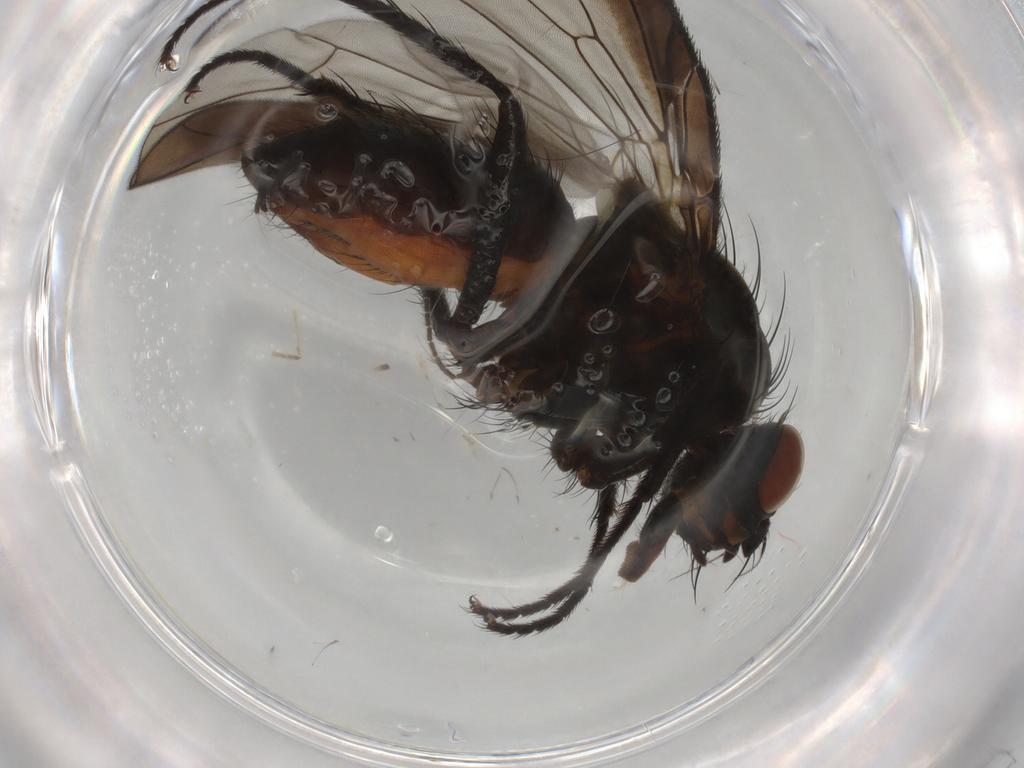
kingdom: Animalia
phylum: Arthropoda
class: Insecta
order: Diptera
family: Anthomyiidae
